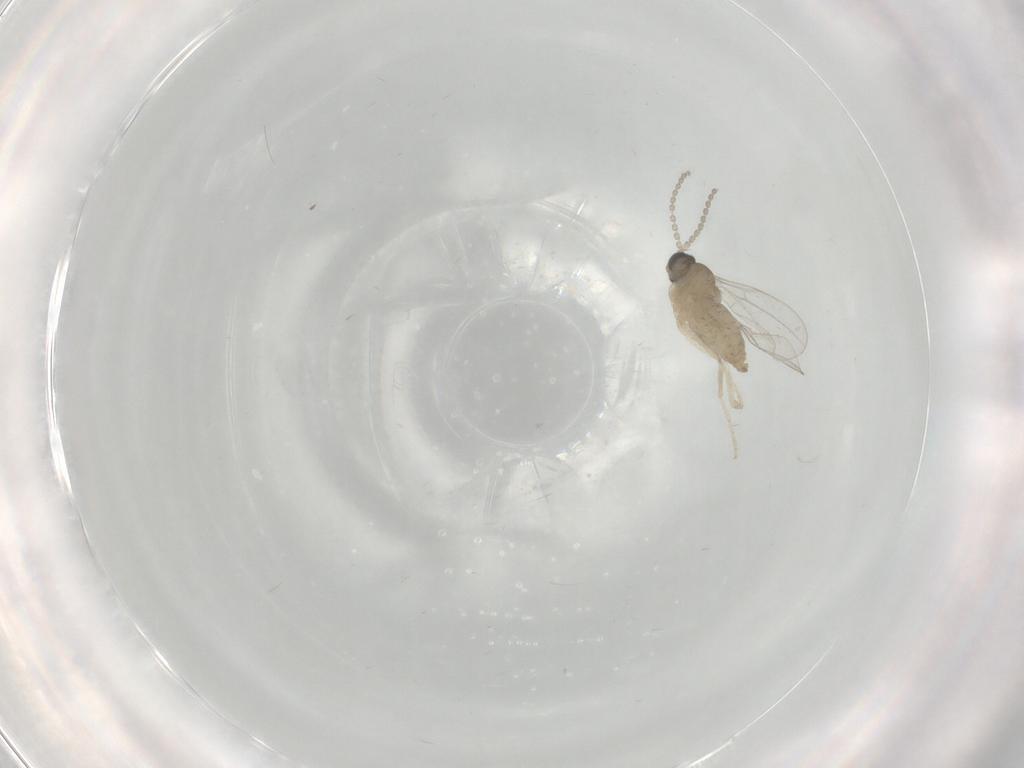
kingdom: Animalia
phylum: Arthropoda
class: Insecta
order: Diptera
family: Cecidomyiidae
